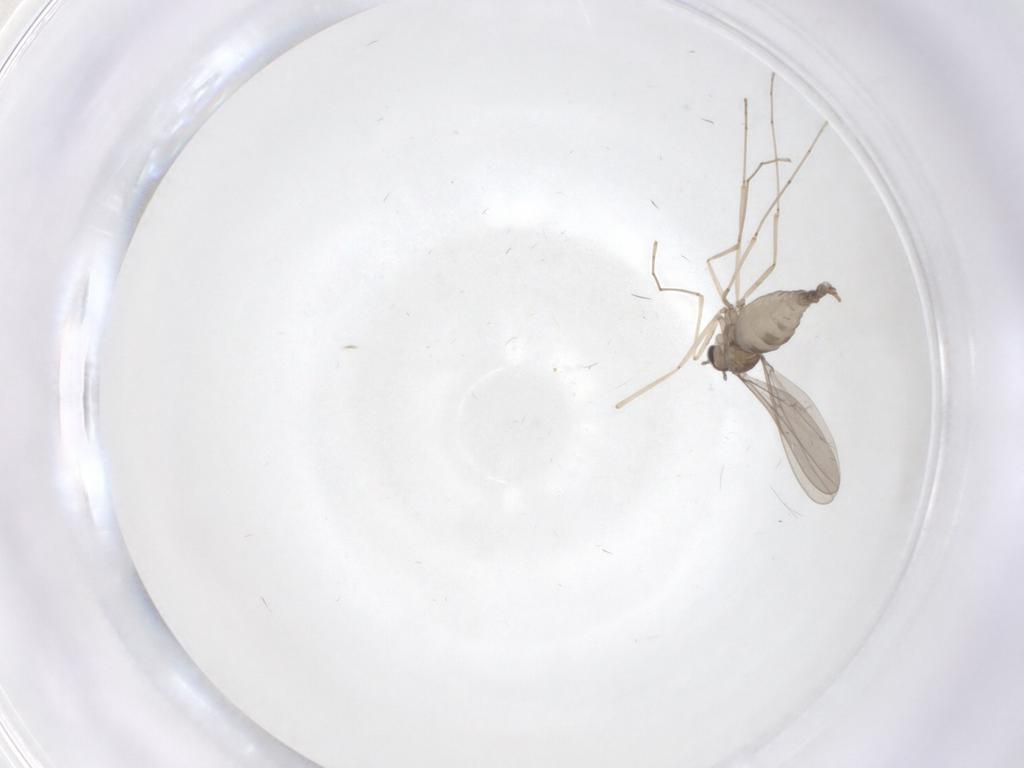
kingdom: Animalia
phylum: Arthropoda
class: Insecta
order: Diptera
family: Cecidomyiidae
